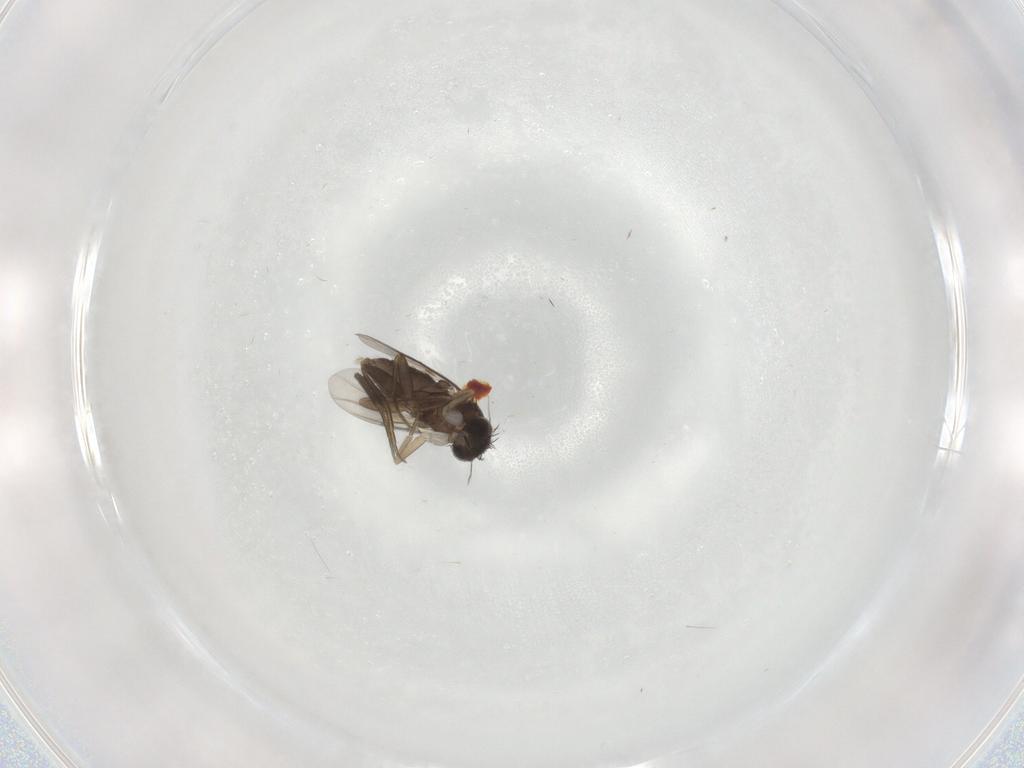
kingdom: Animalia
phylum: Arthropoda
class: Insecta
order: Diptera
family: Phoridae
